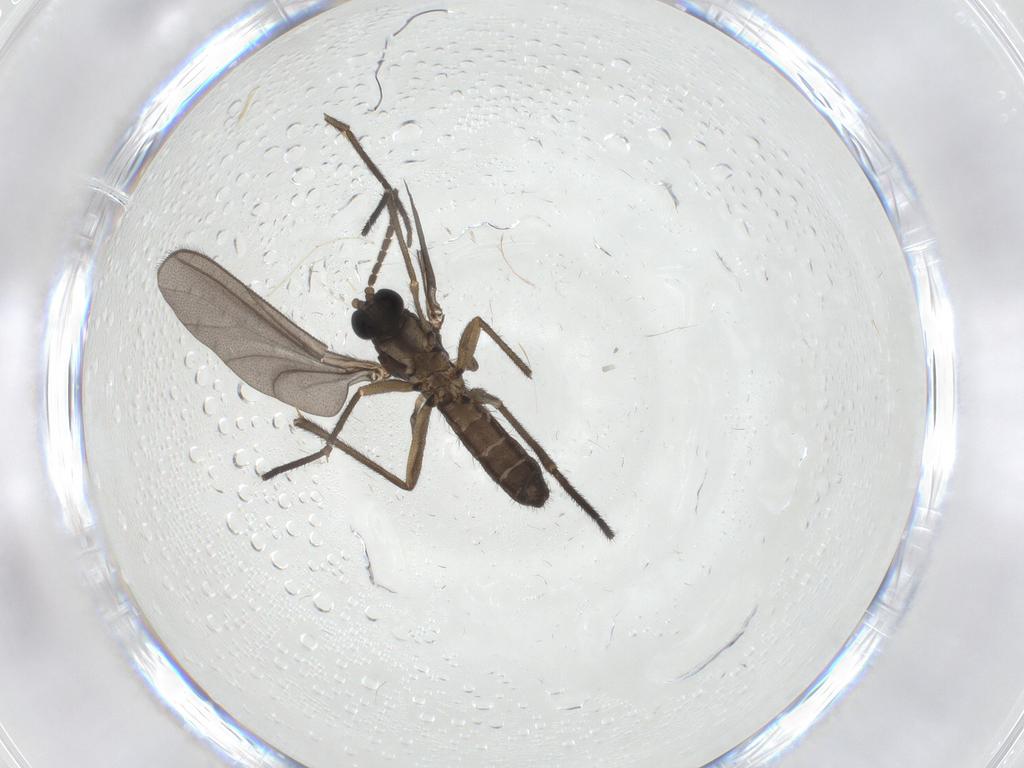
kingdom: Animalia
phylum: Arthropoda
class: Insecta
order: Diptera
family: Sciaridae
